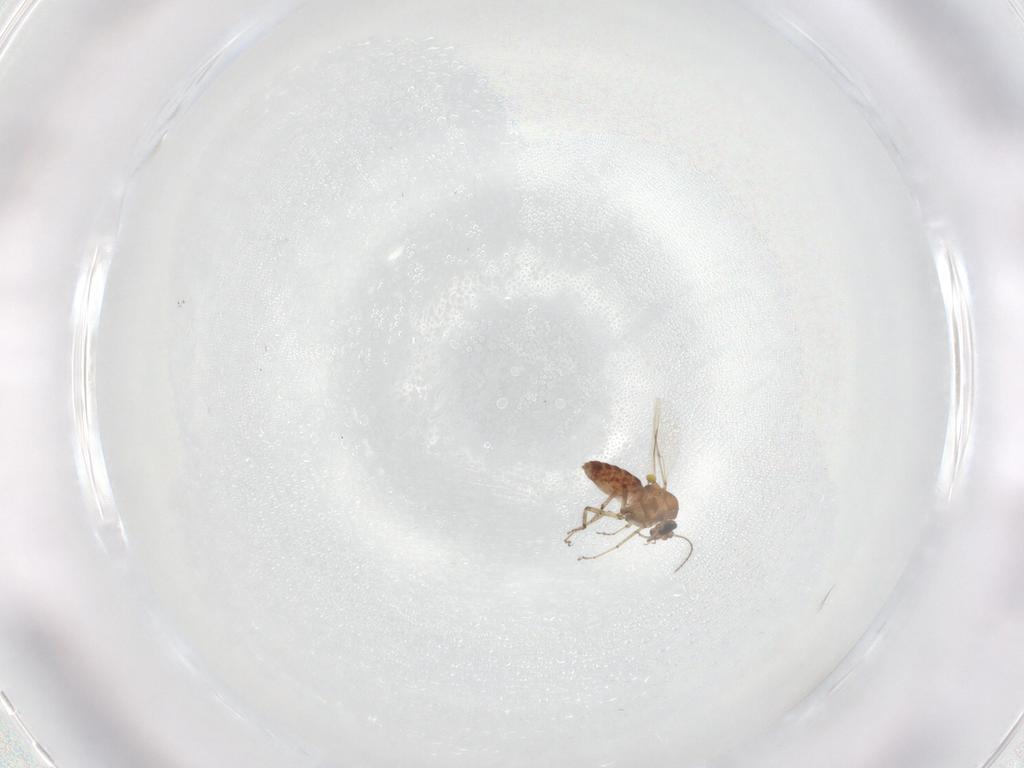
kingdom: Animalia
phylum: Arthropoda
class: Insecta
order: Diptera
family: Ceratopogonidae
